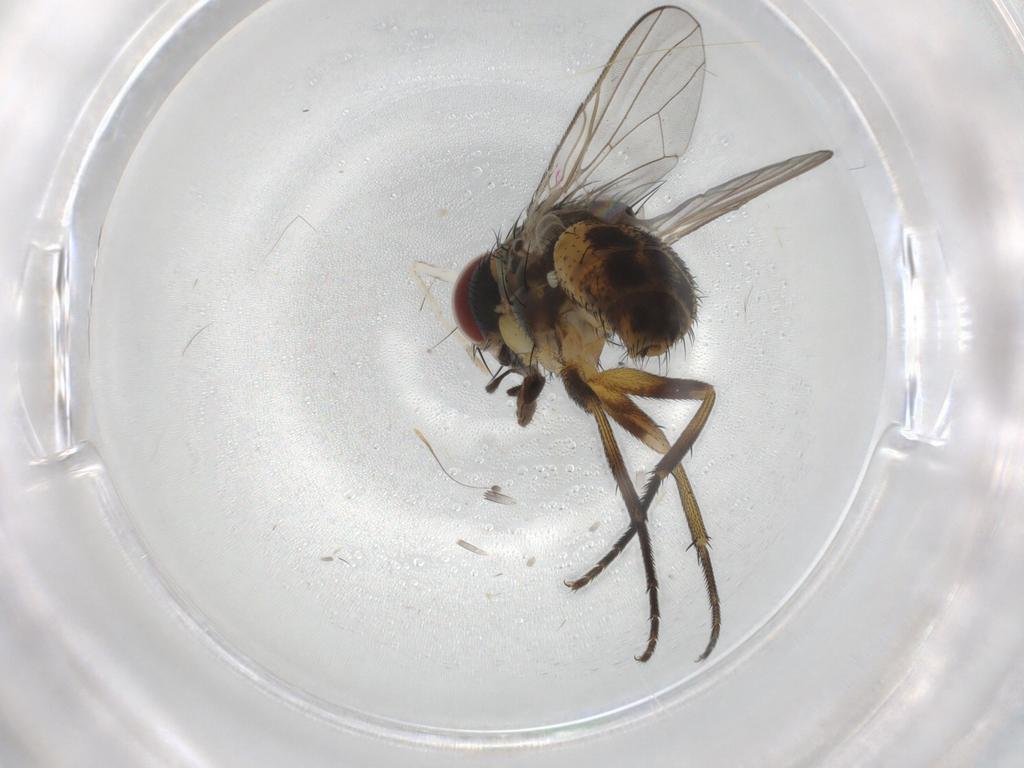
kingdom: Animalia
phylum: Arthropoda
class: Insecta
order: Diptera
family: Muscidae
